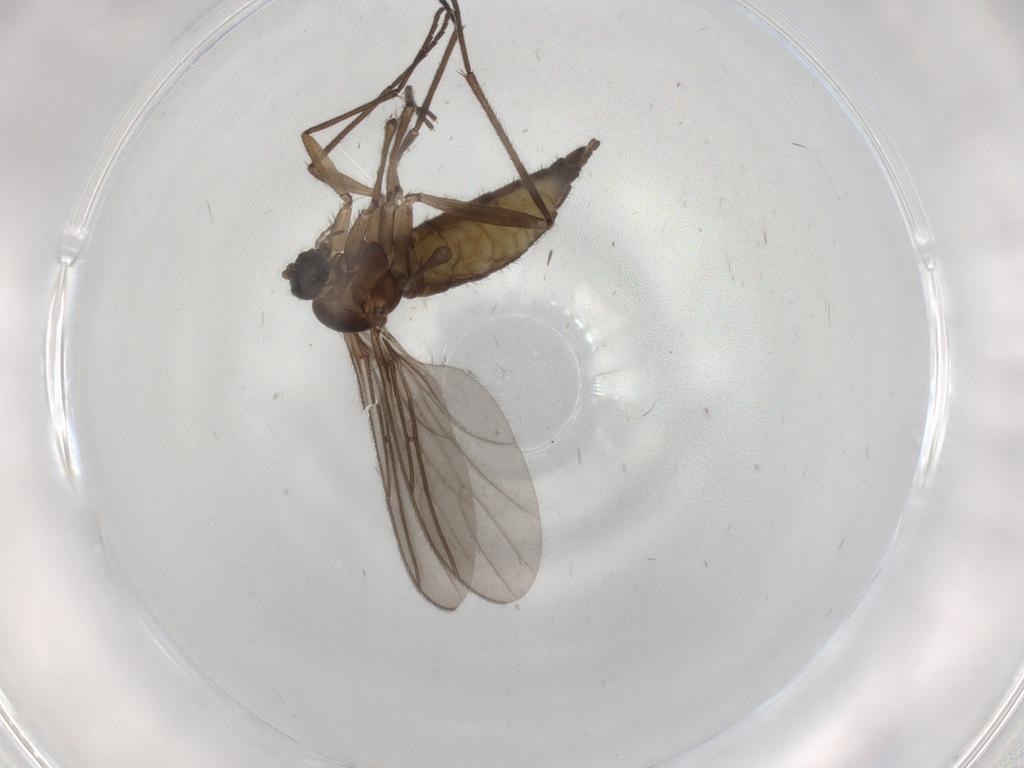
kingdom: Animalia
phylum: Arthropoda
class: Insecta
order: Diptera
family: Sciaridae
